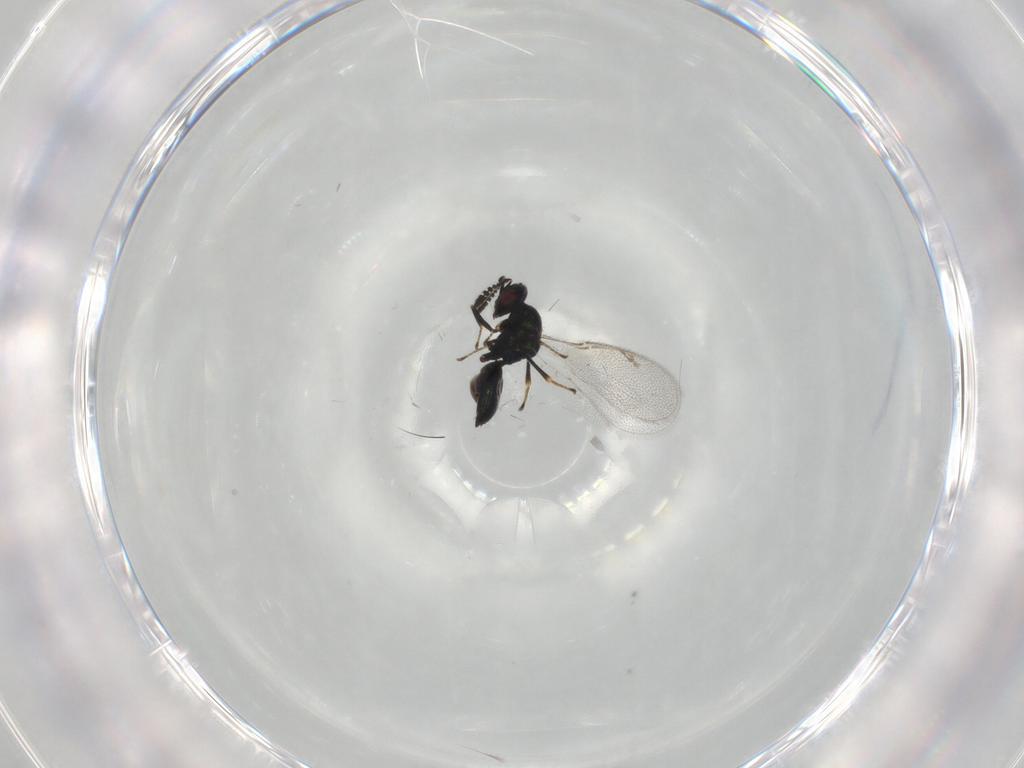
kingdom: Animalia
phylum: Arthropoda
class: Insecta
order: Hymenoptera
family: Pteromalidae
